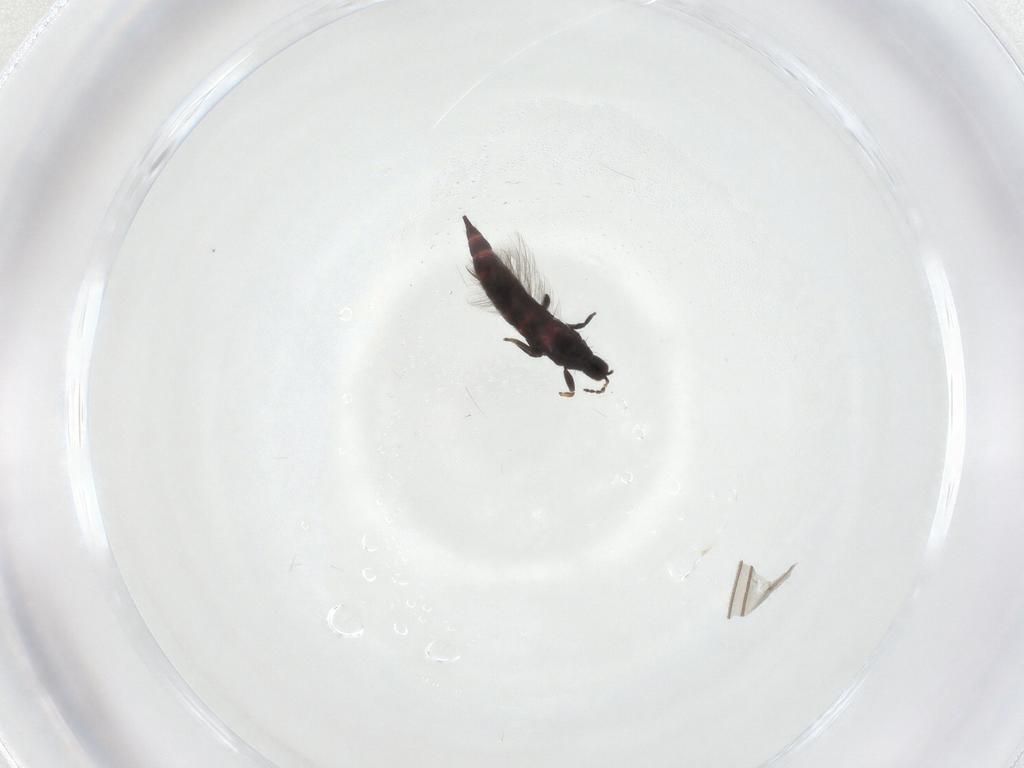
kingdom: Animalia
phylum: Arthropoda
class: Insecta
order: Thysanoptera
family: Phlaeothripidae
